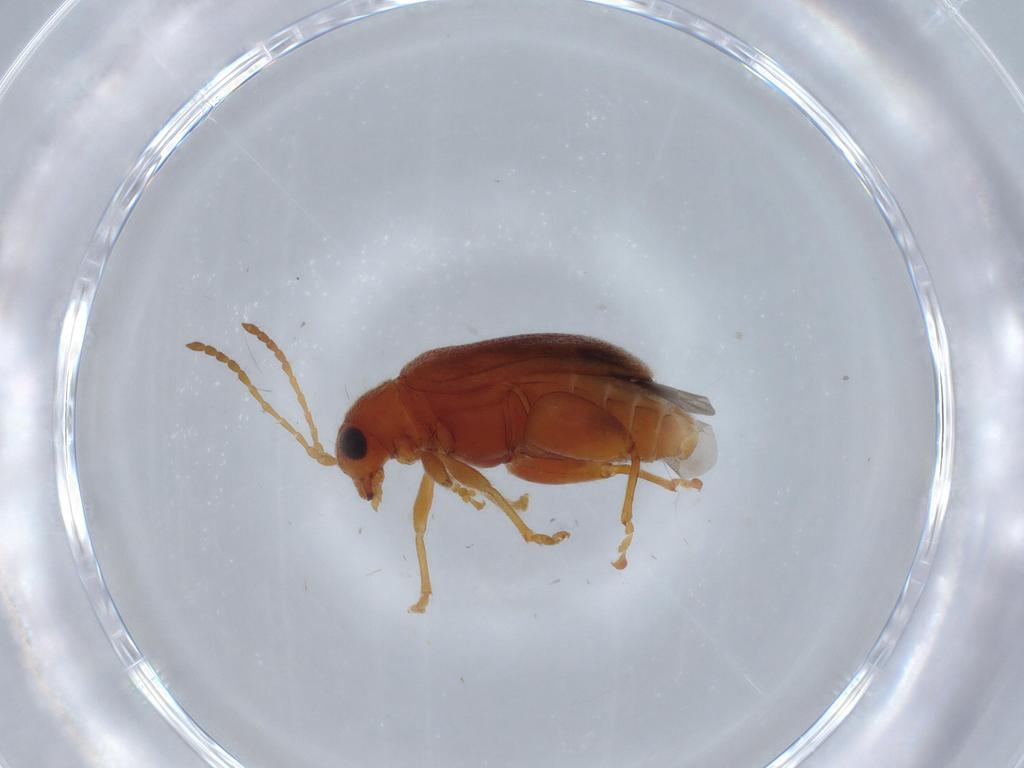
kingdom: Animalia
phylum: Arthropoda
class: Insecta
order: Coleoptera
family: Chrysomelidae
